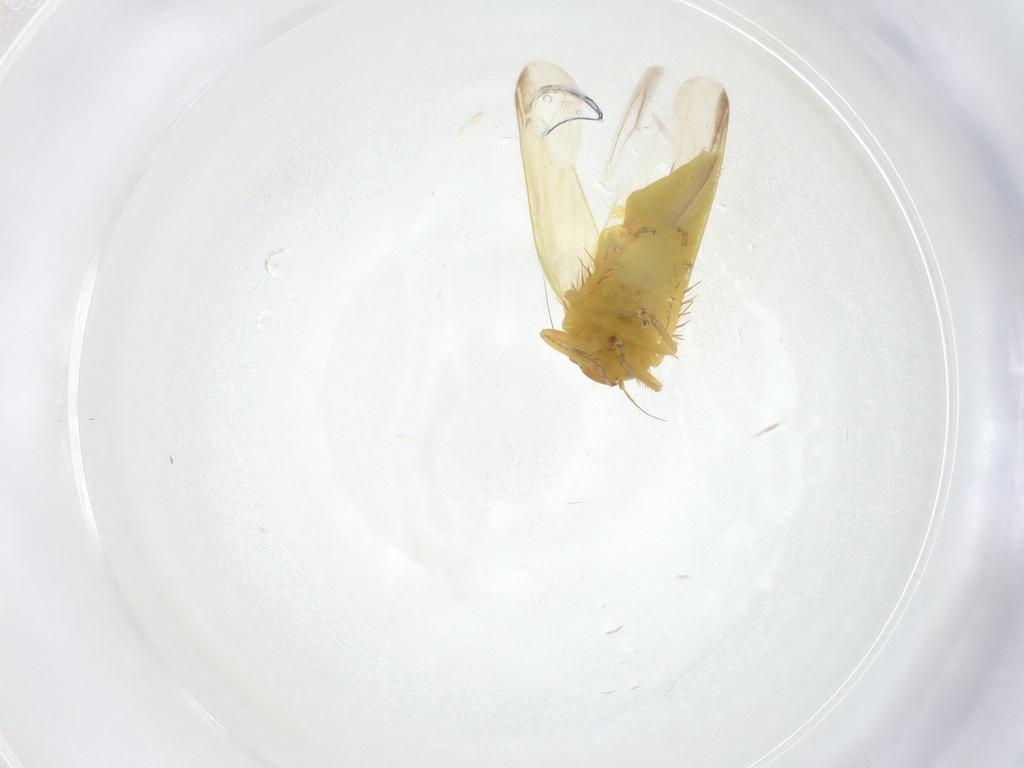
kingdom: Animalia
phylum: Arthropoda
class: Insecta
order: Hemiptera
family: Cicadellidae
